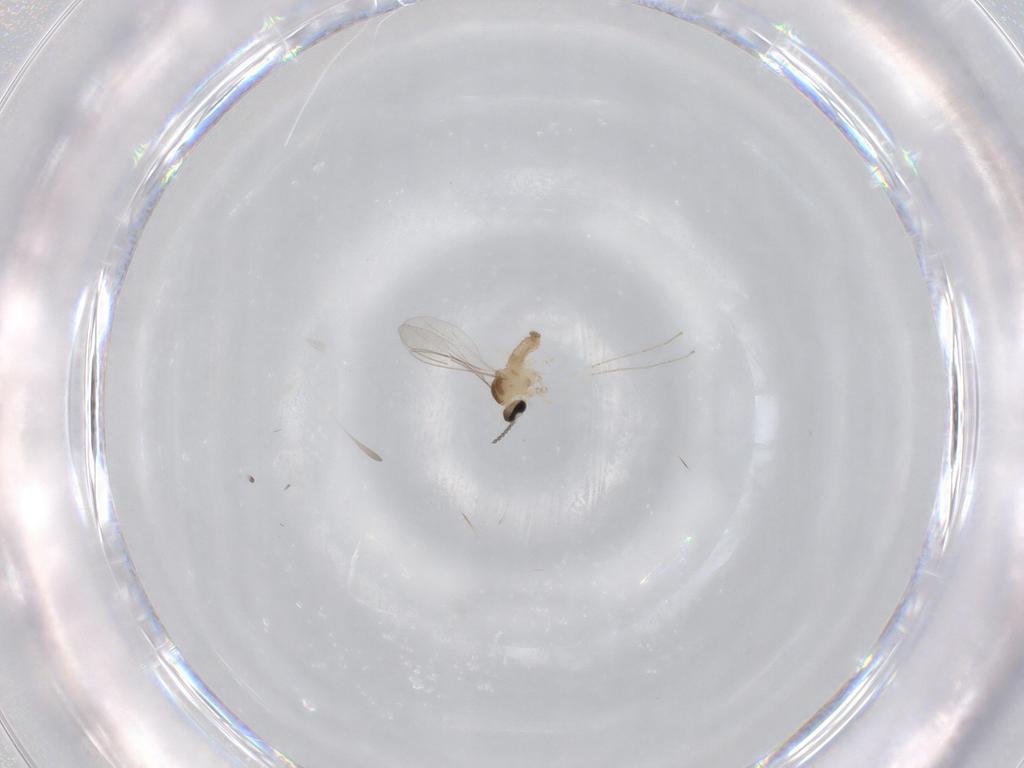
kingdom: Animalia
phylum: Arthropoda
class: Insecta
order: Diptera
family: Cecidomyiidae
